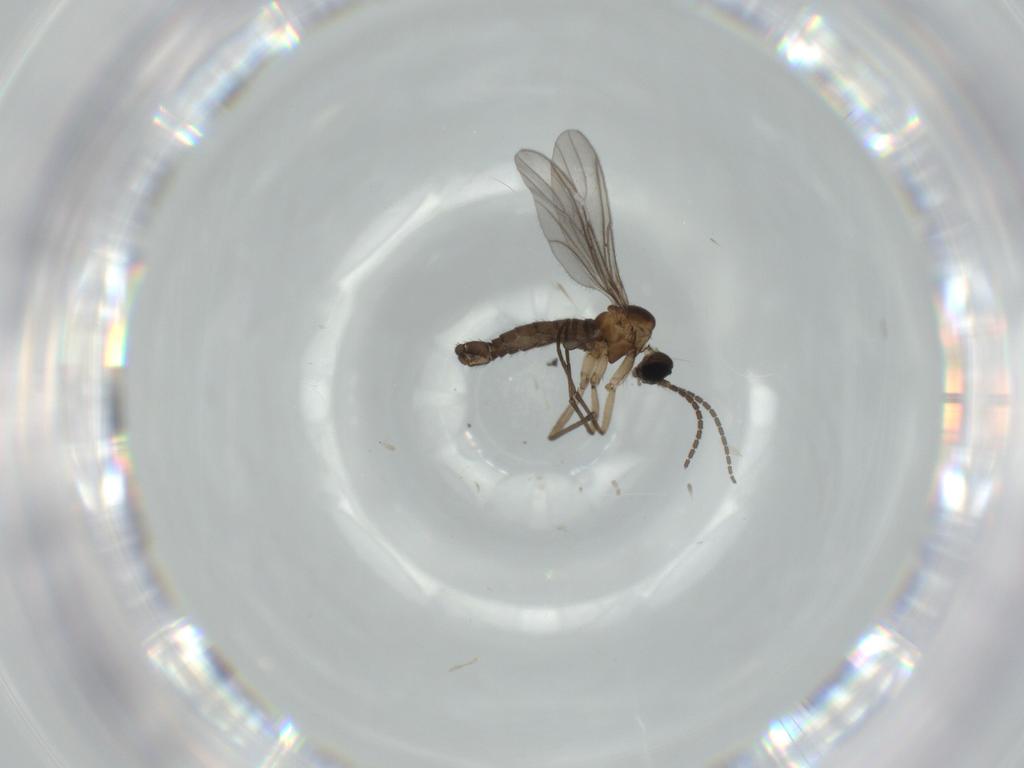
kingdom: Animalia
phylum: Arthropoda
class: Insecta
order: Diptera
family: Sciaridae
